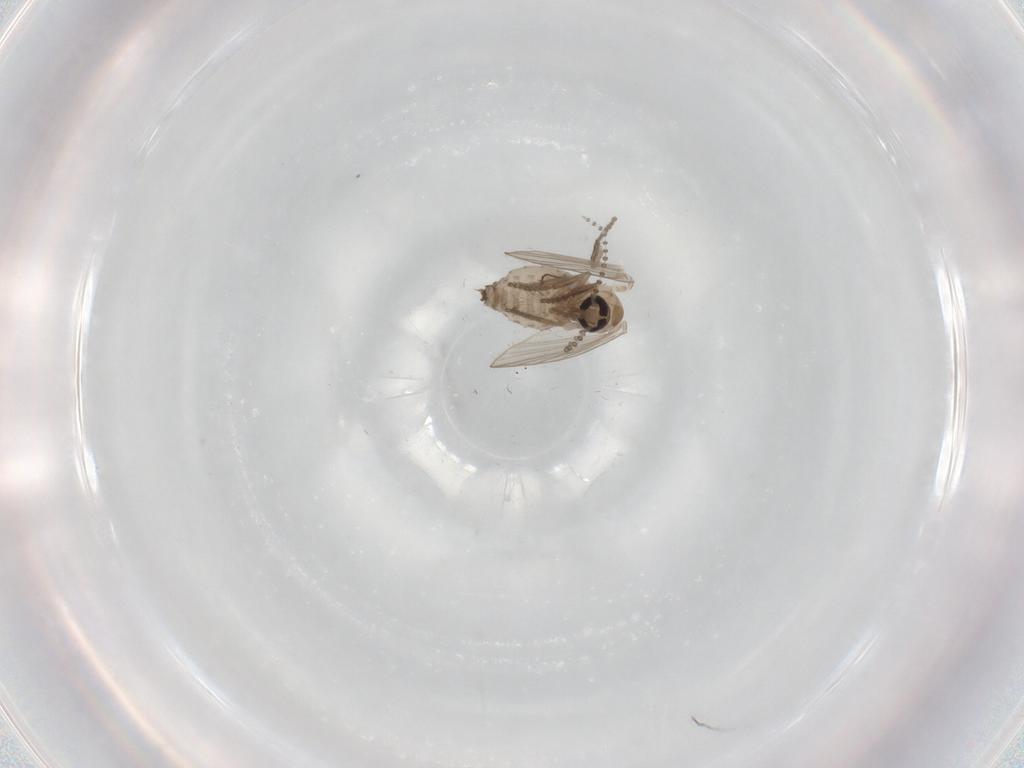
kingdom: Animalia
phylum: Arthropoda
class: Insecta
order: Diptera
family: Psychodidae
